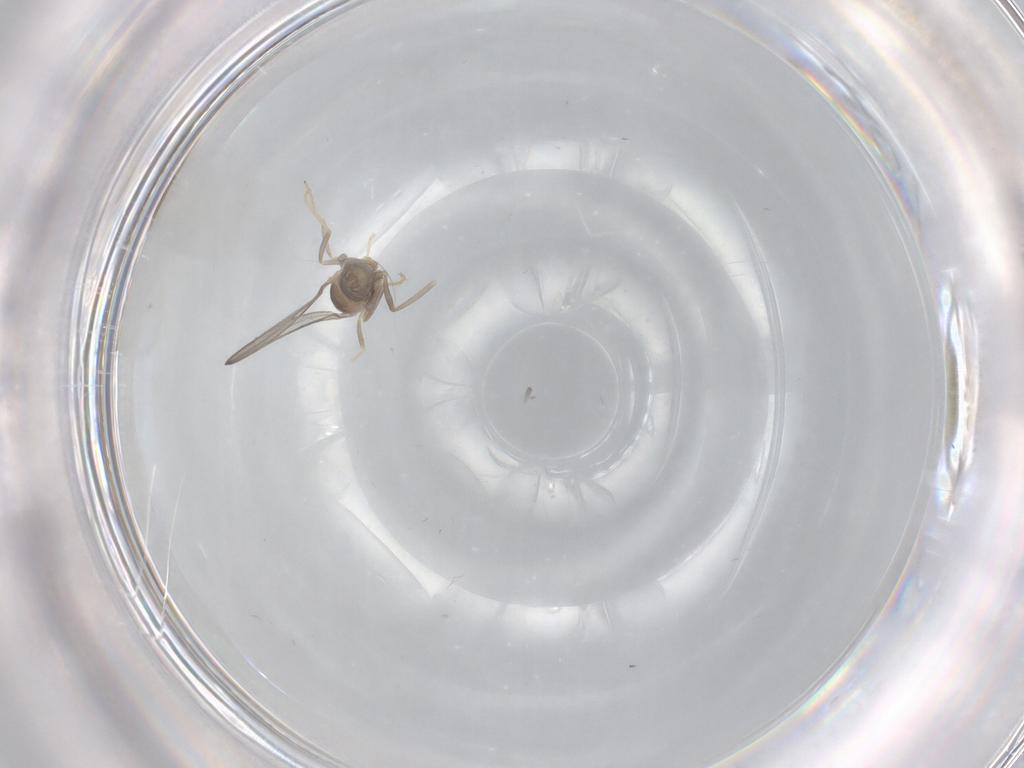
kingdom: Animalia
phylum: Arthropoda
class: Insecta
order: Diptera
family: Cecidomyiidae
